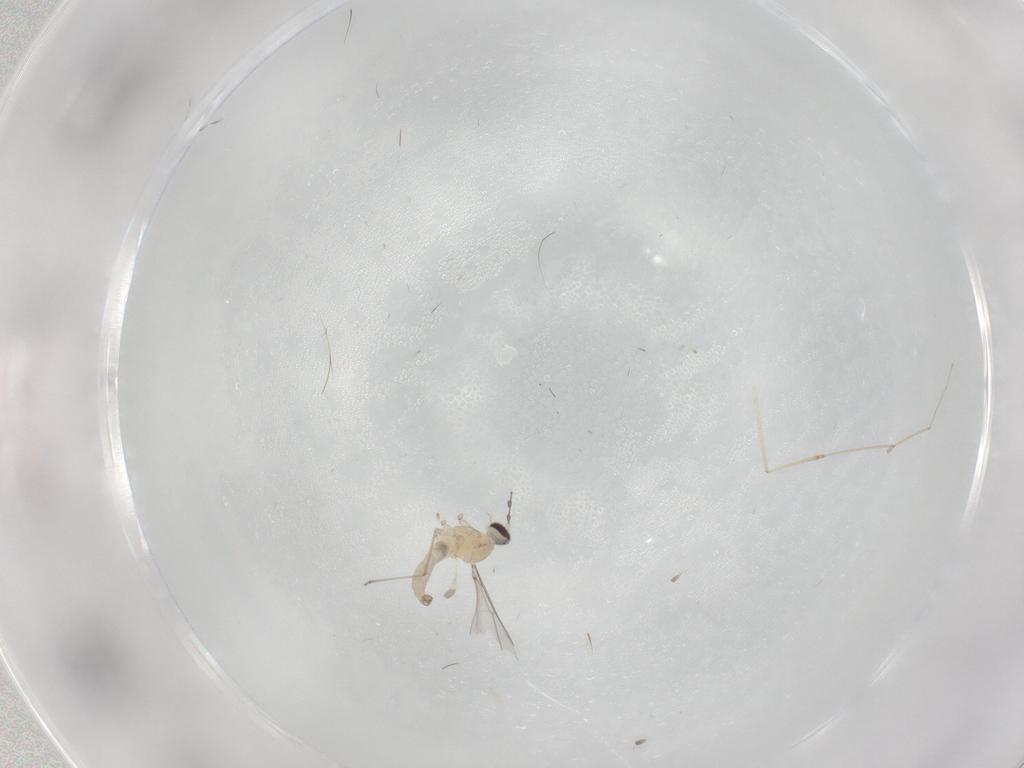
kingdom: Animalia
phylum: Arthropoda
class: Insecta
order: Diptera
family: Cecidomyiidae
